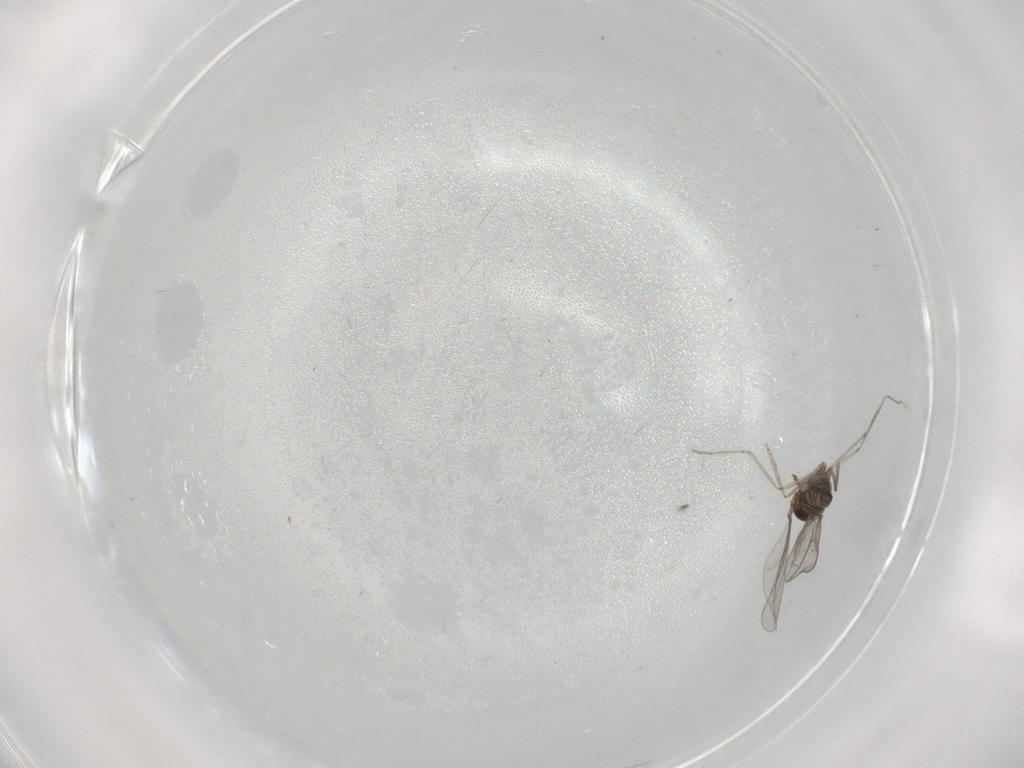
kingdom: Animalia
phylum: Arthropoda
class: Insecta
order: Diptera
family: Cecidomyiidae
